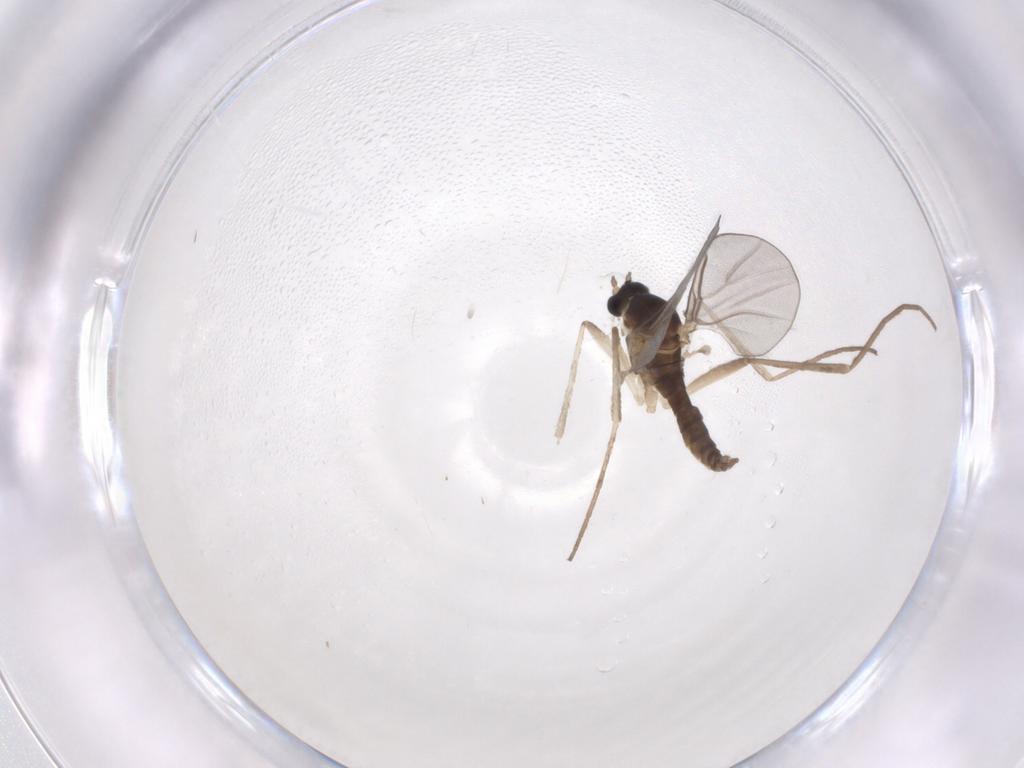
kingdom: Animalia
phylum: Arthropoda
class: Insecta
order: Diptera
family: Cecidomyiidae
